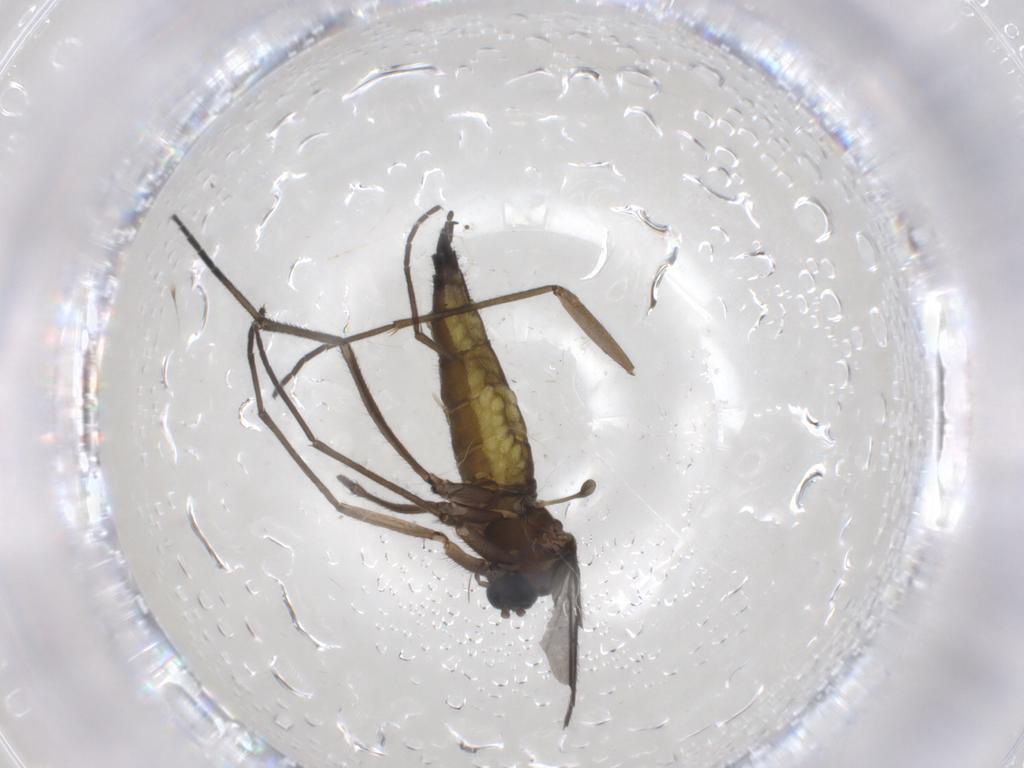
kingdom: Animalia
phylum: Arthropoda
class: Insecta
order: Diptera
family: Sciaridae
